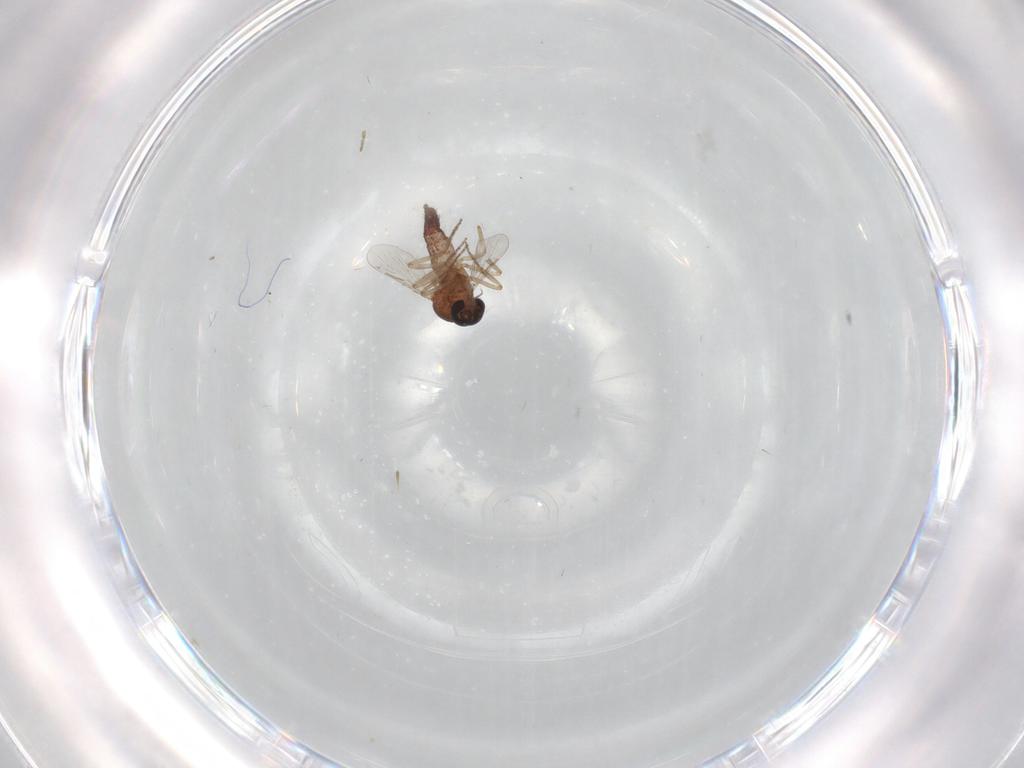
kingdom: Animalia
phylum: Arthropoda
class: Insecta
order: Diptera
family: Ceratopogonidae
